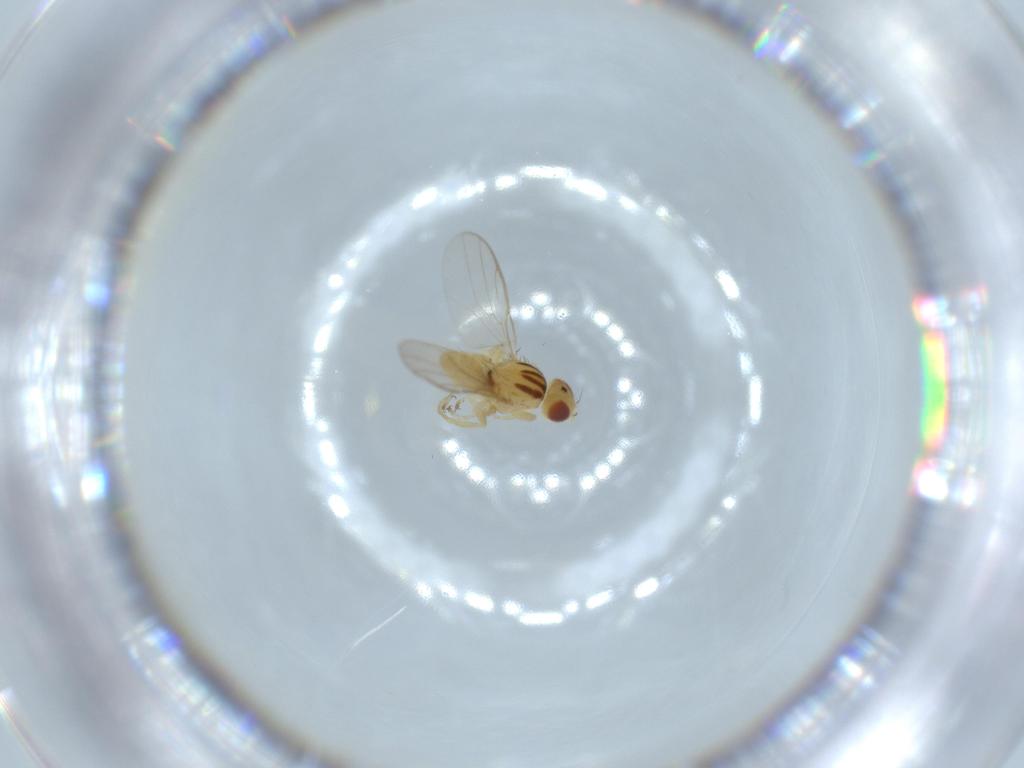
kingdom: Animalia
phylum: Arthropoda
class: Insecta
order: Diptera
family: Chloropidae
